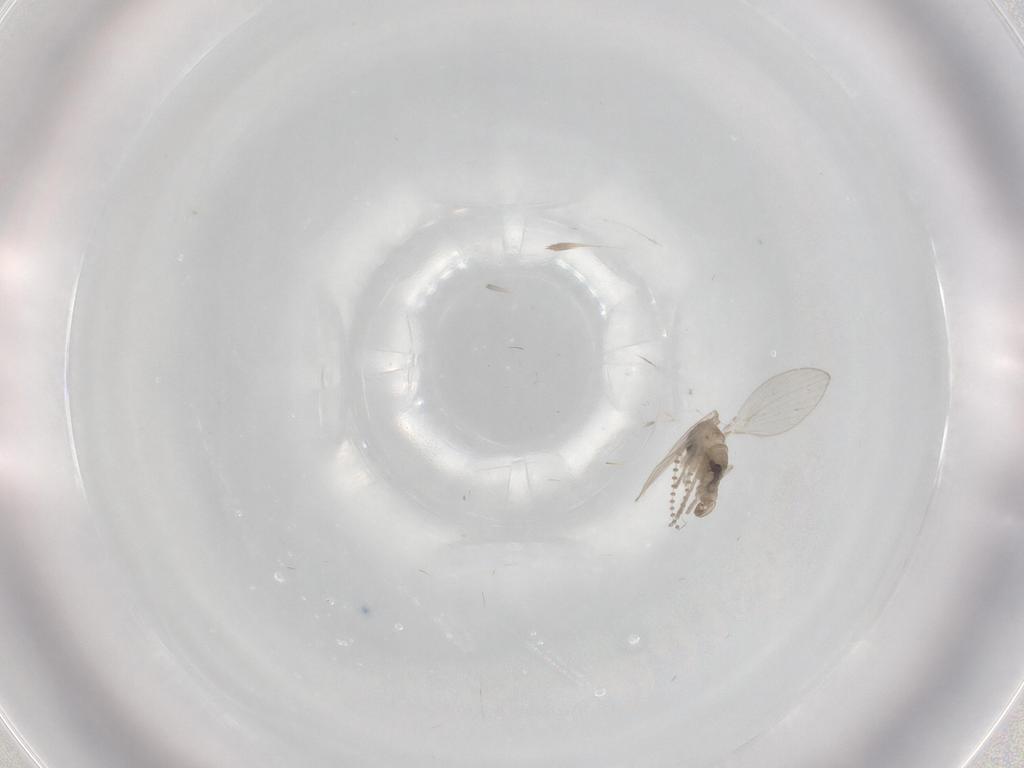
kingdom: Animalia
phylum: Arthropoda
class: Insecta
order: Diptera
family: Psychodidae
